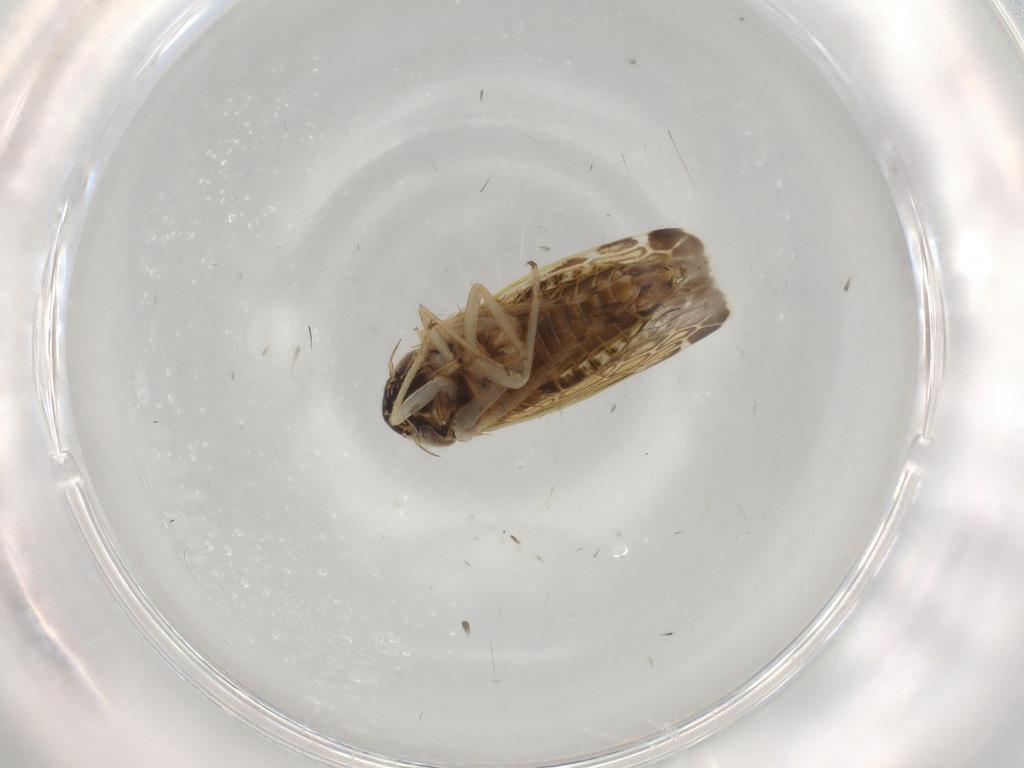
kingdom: Animalia
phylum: Arthropoda
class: Insecta
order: Hemiptera
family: Cicadellidae
